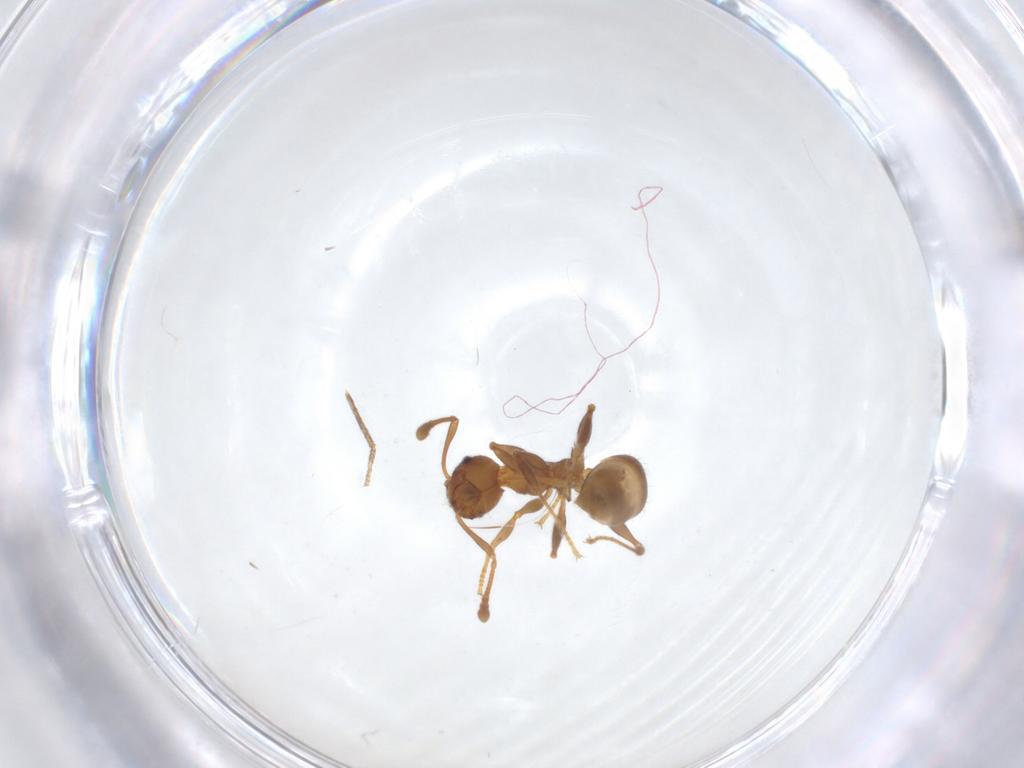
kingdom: Animalia
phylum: Arthropoda
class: Insecta
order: Hymenoptera
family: Formicidae
